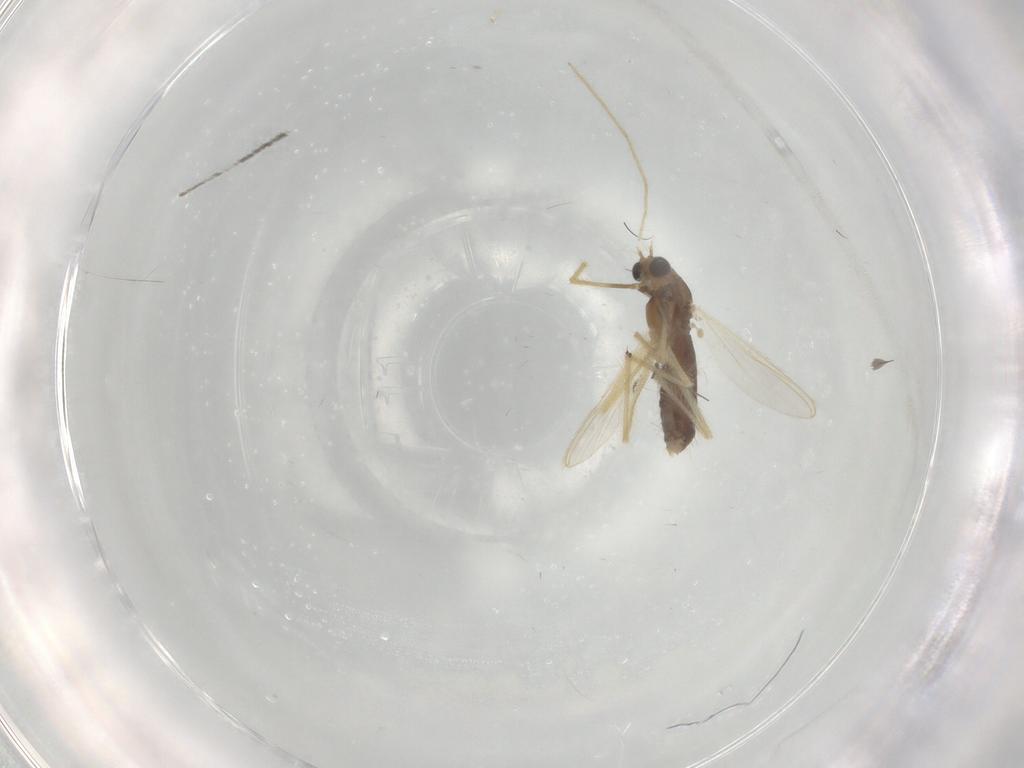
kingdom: Animalia
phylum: Arthropoda
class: Insecta
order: Diptera
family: Chironomidae
